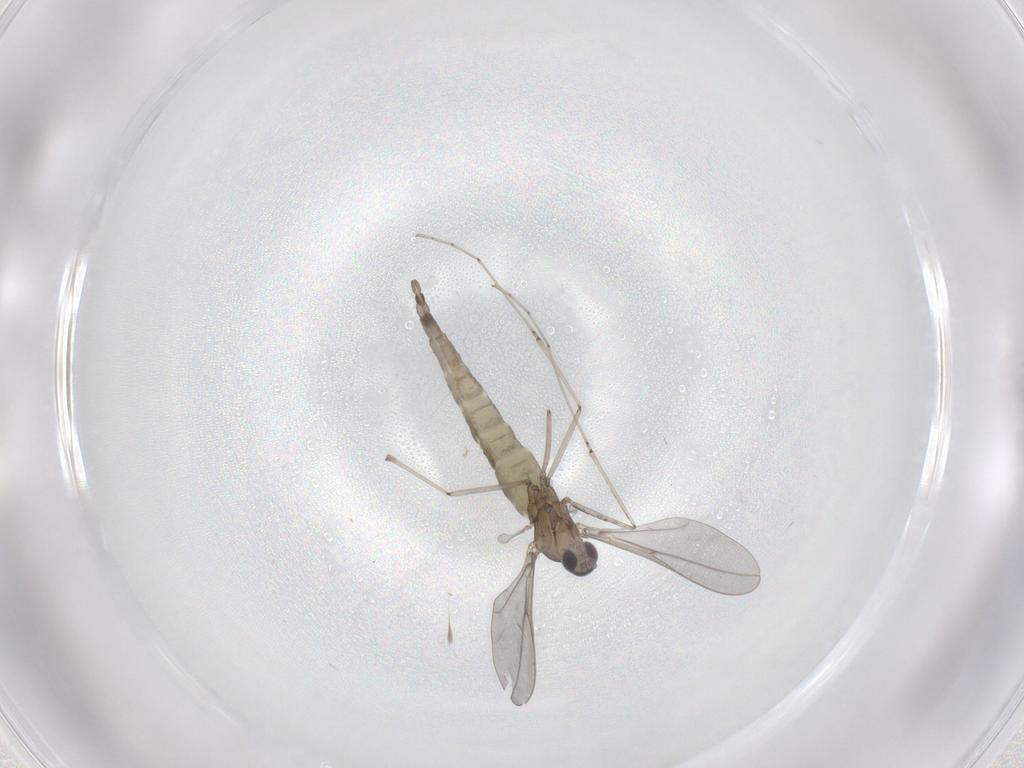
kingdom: Animalia
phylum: Arthropoda
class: Insecta
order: Diptera
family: Cecidomyiidae
